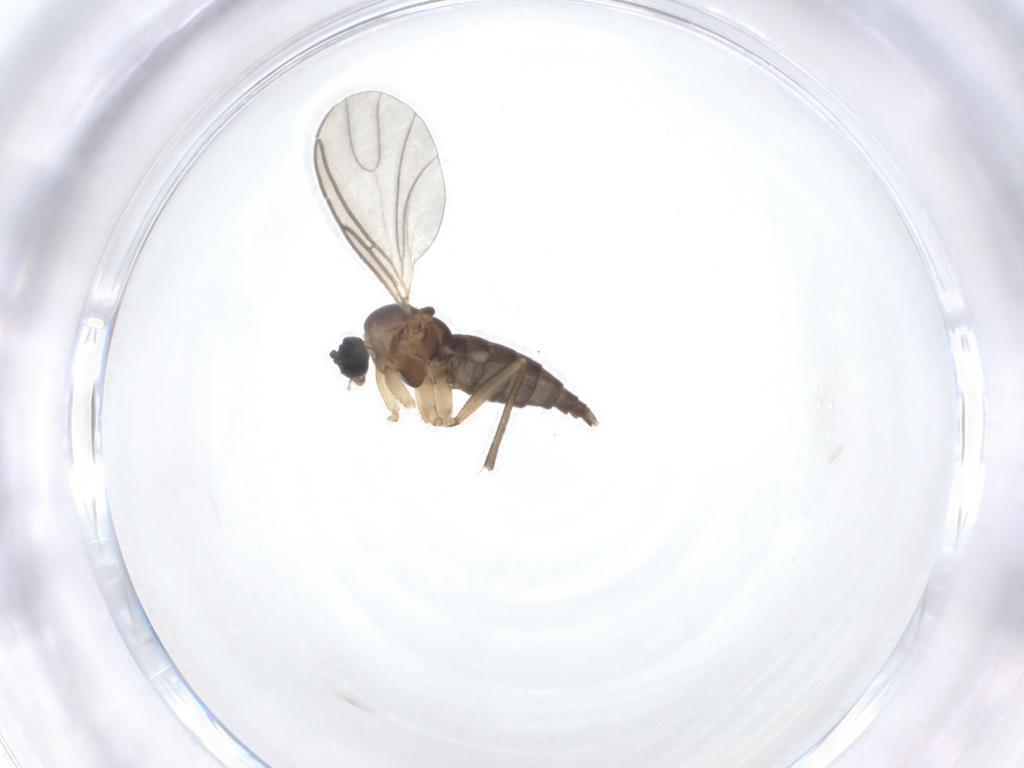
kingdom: Animalia
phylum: Arthropoda
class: Insecta
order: Diptera
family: Sciaridae
